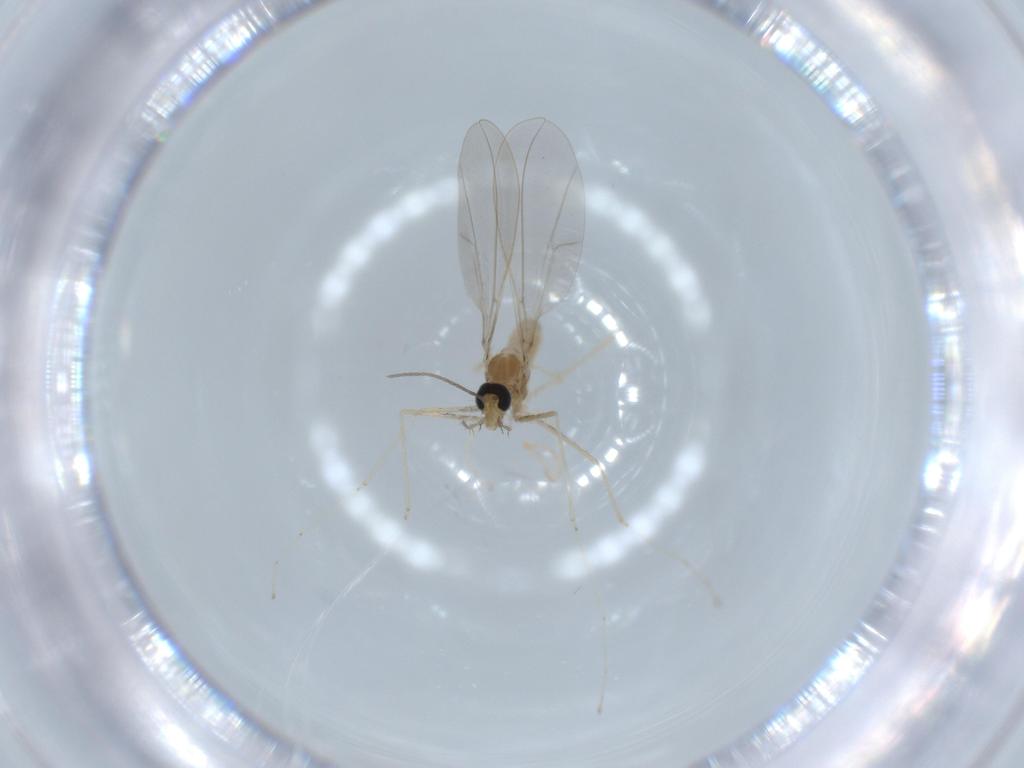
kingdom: Animalia
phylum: Arthropoda
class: Insecta
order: Diptera
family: Cecidomyiidae
